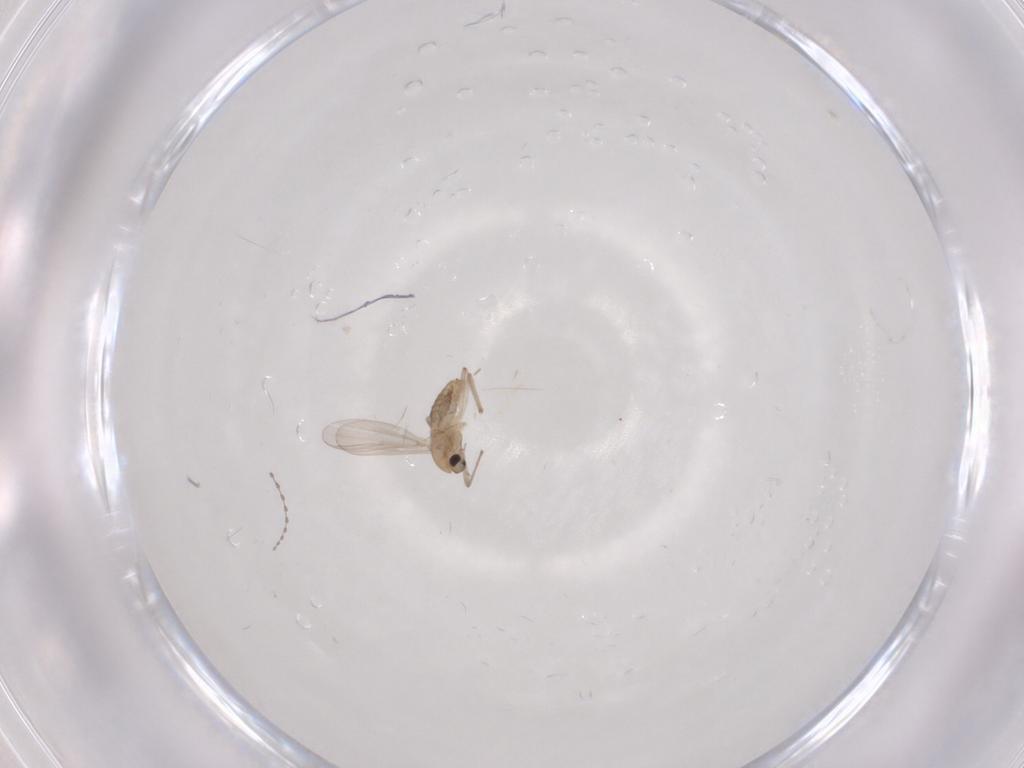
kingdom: Animalia
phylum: Arthropoda
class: Insecta
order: Diptera
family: Chironomidae
